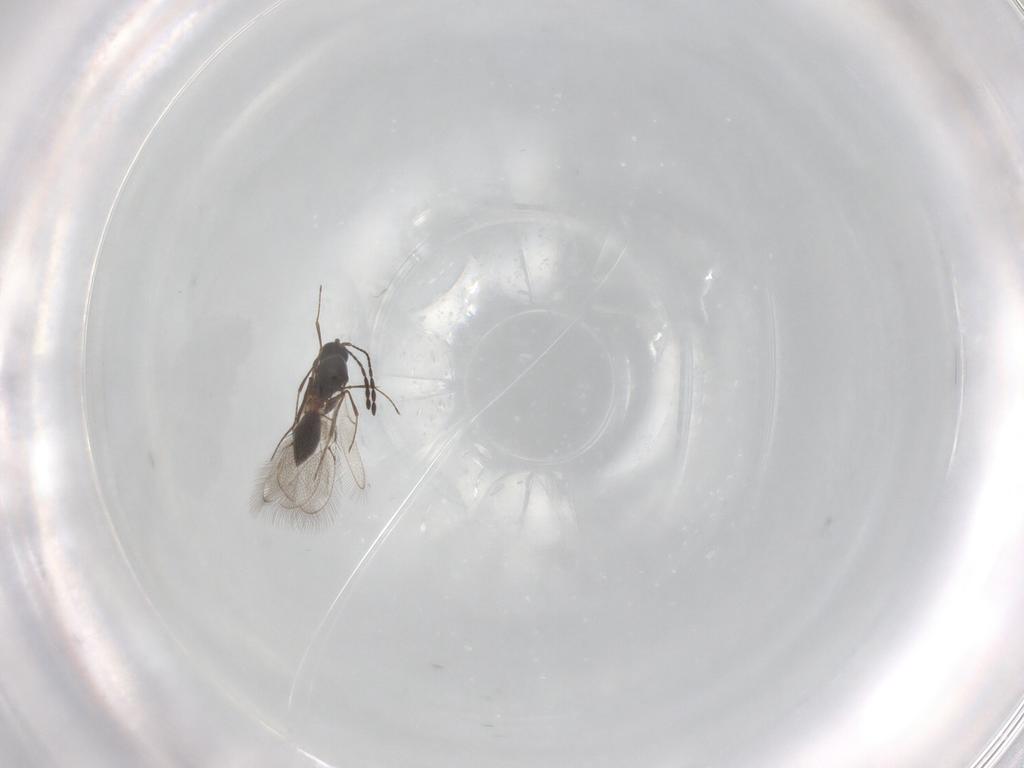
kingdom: Animalia
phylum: Arthropoda
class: Insecta
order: Hymenoptera
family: Figitidae
